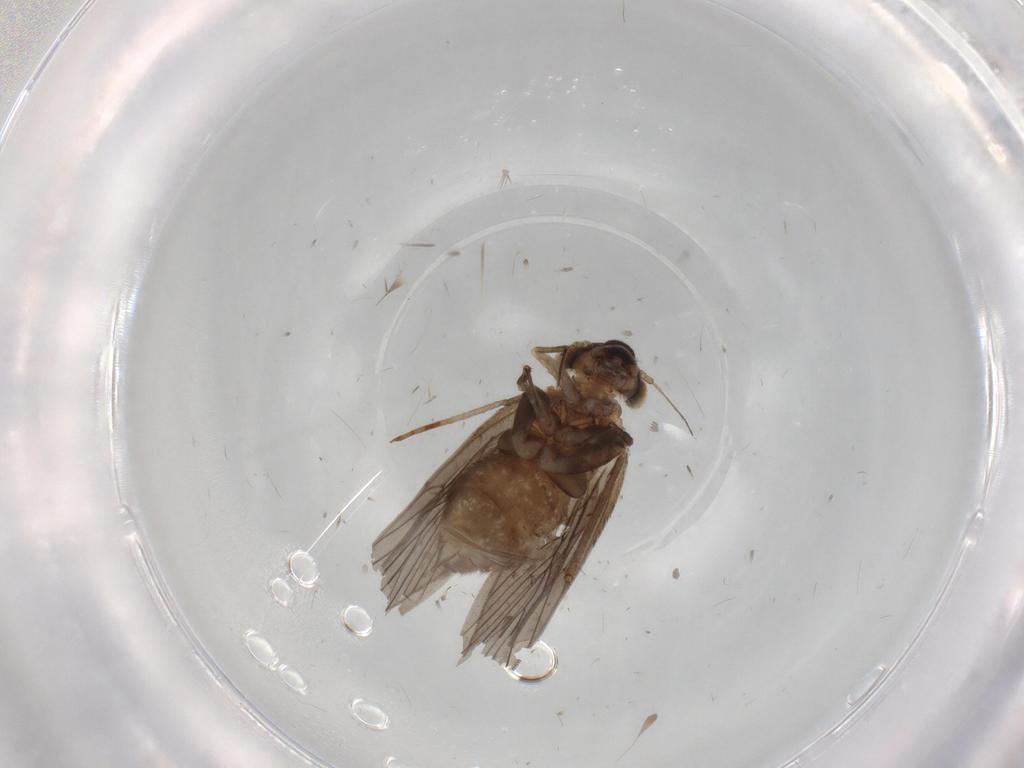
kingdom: Animalia
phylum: Arthropoda
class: Insecta
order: Psocodea
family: Lepidopsocidae
